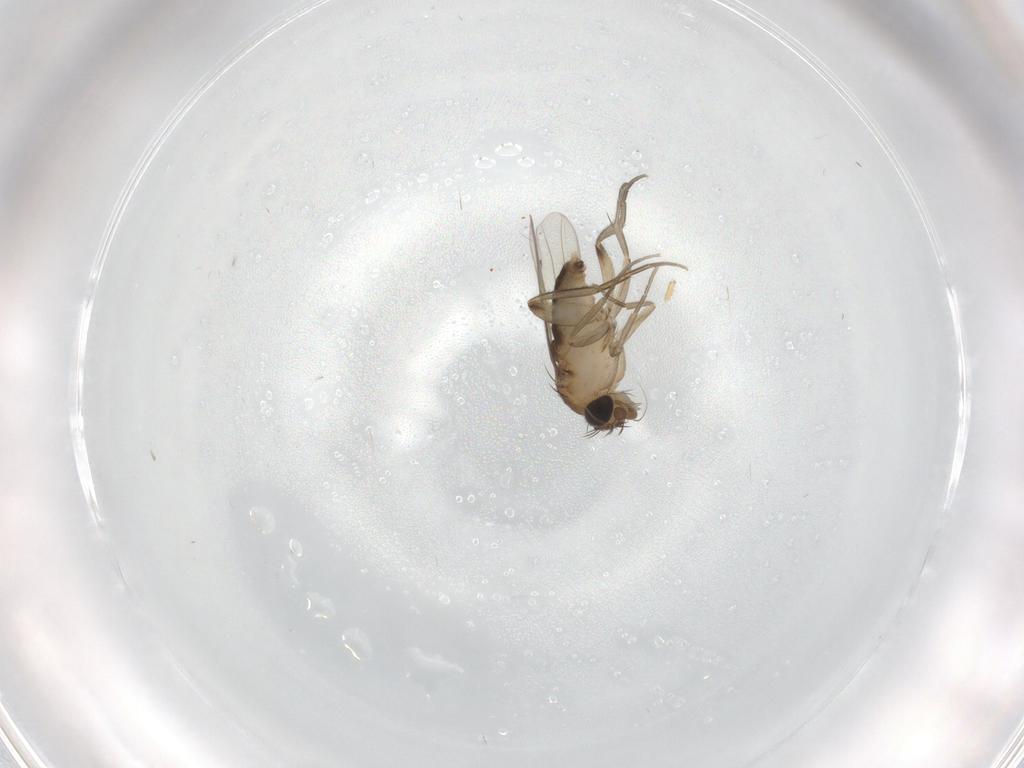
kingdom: Animalia
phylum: Arthropoda
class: Insecta
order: Diptera
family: Phoridae
